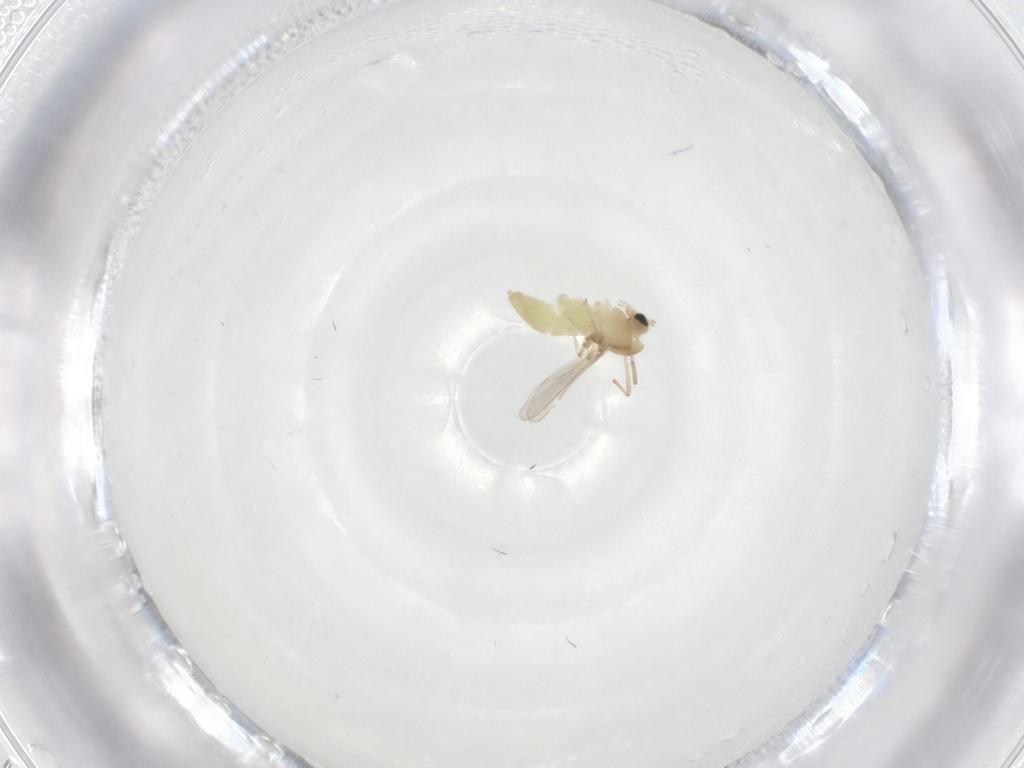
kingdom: Animalia
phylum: Arthropoda
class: Insecta
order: Diptera
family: Chironomidae
